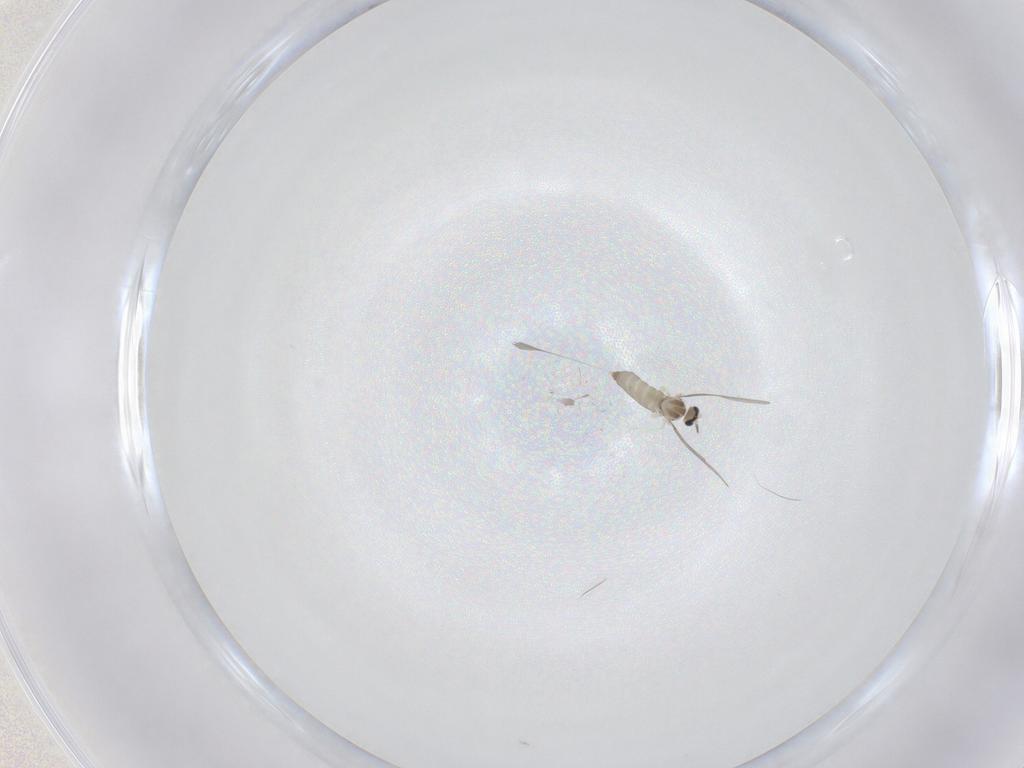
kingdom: Animalia
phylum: Arthropoda
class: Insecta
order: Diptera
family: Cecidomyiidae
